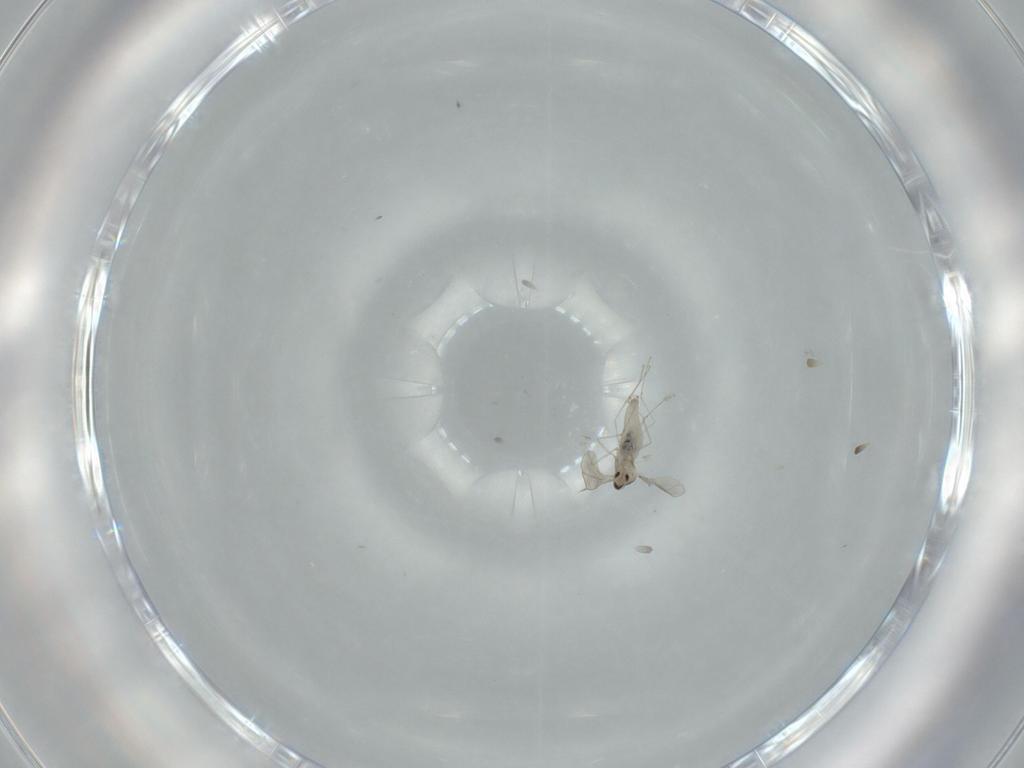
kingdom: Animalia
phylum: Arthropoda
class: Insecta
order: Diptera
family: Cecidomyiidae
